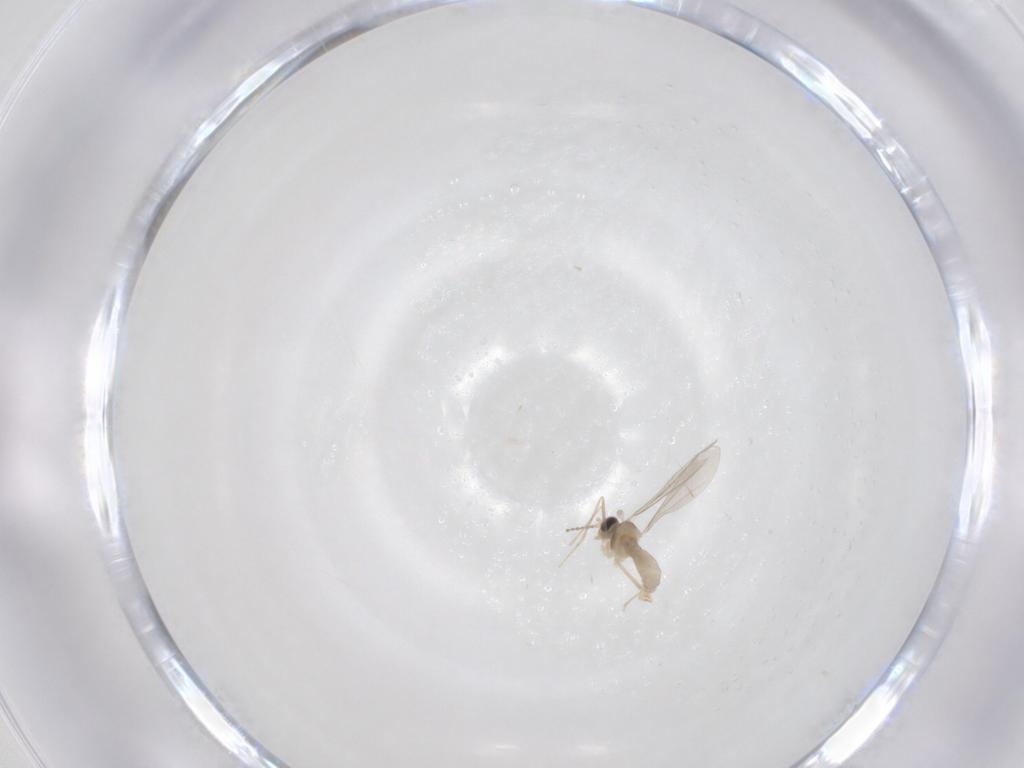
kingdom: Animalia
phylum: Arthropoda
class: Insecta
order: Diptera
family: Cecidomyiidae
